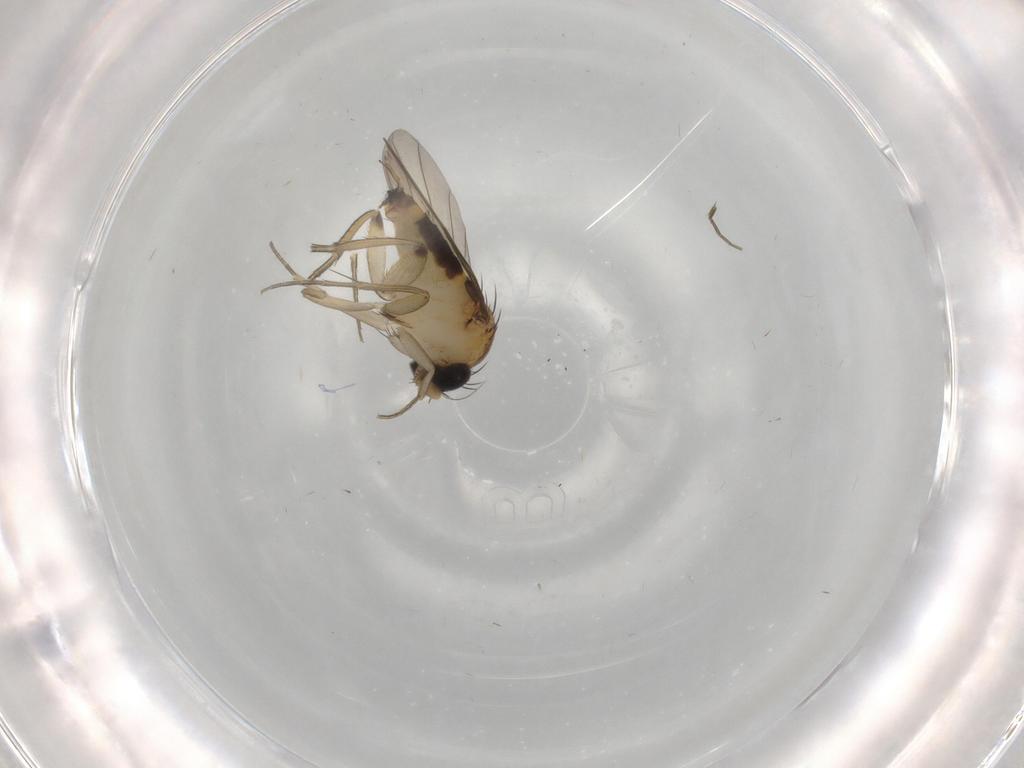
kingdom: Animalia
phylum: Arthropoda
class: Insecta
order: Diptera
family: Phoridae
